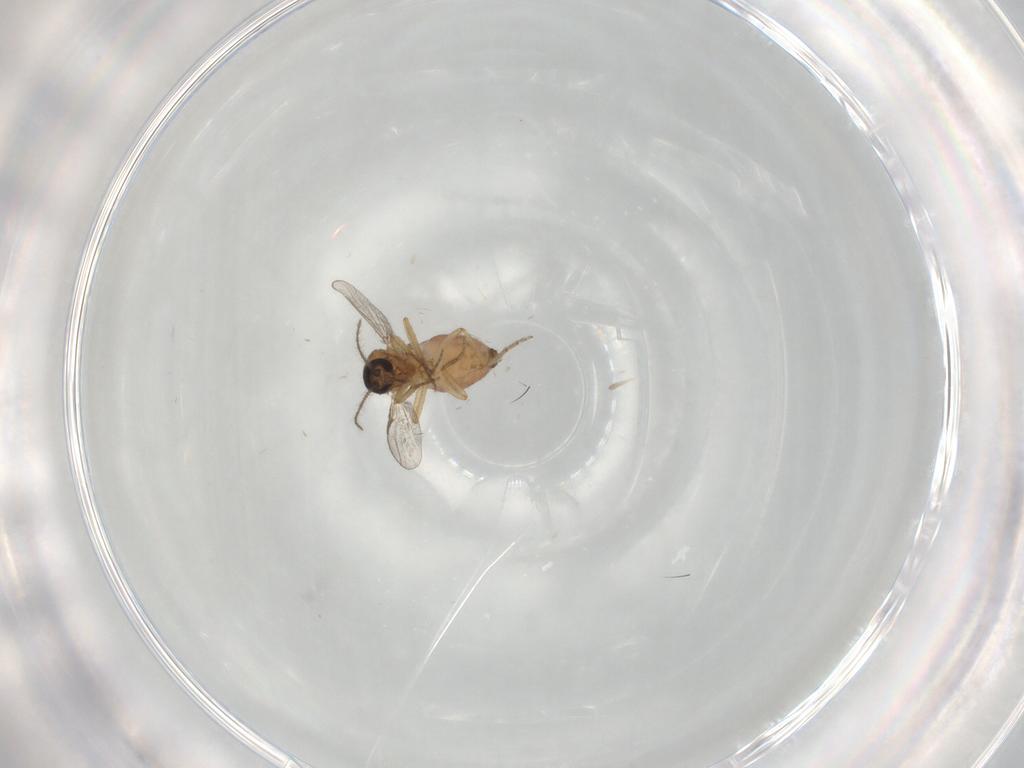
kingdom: Animalia
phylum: Arthropoda
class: Insecta
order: Diptera
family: Ceratopogonidae
